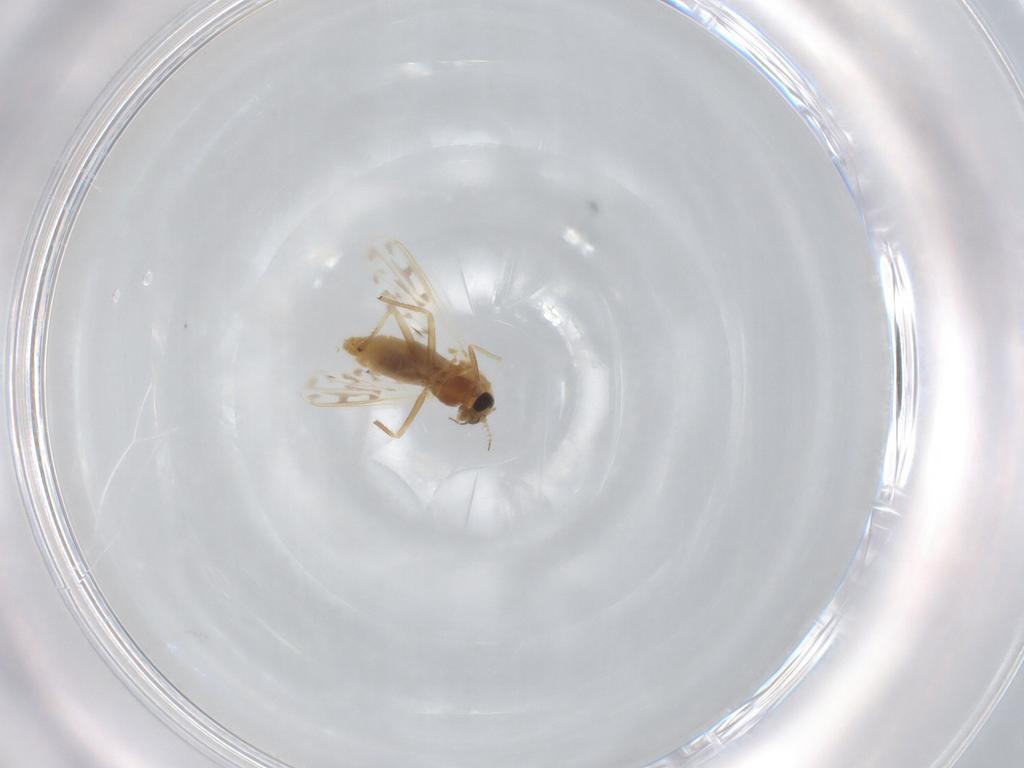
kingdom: Animalia
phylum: Arthropoda
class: Insecta
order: Diptera
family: Chironomidae
